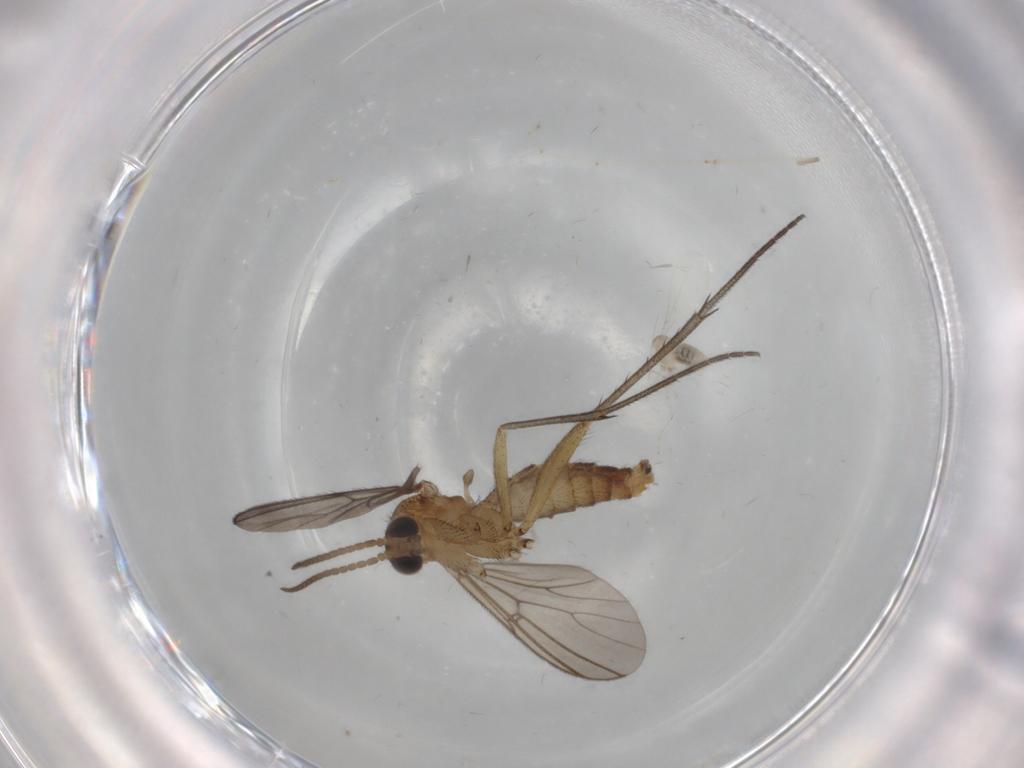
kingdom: Animalia
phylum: Arthropoda
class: Insecta
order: Diptera
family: Cecidomyiidae
